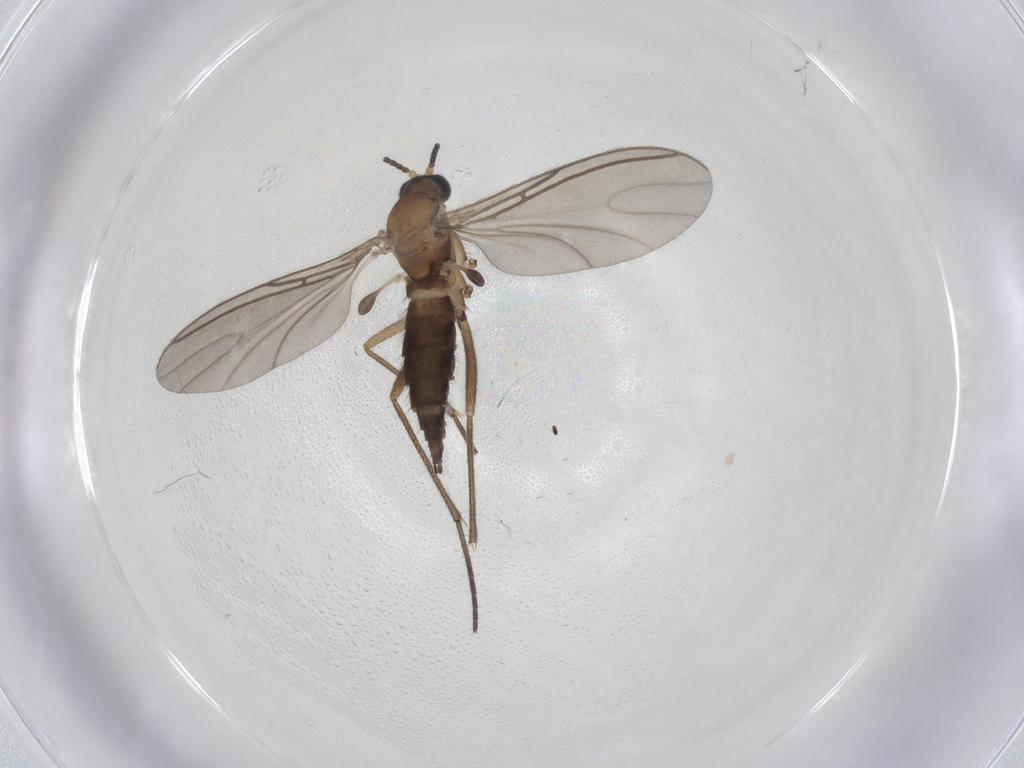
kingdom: Animalia
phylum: Arthropoda
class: Insecta
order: Diptera
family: Sciaridae
